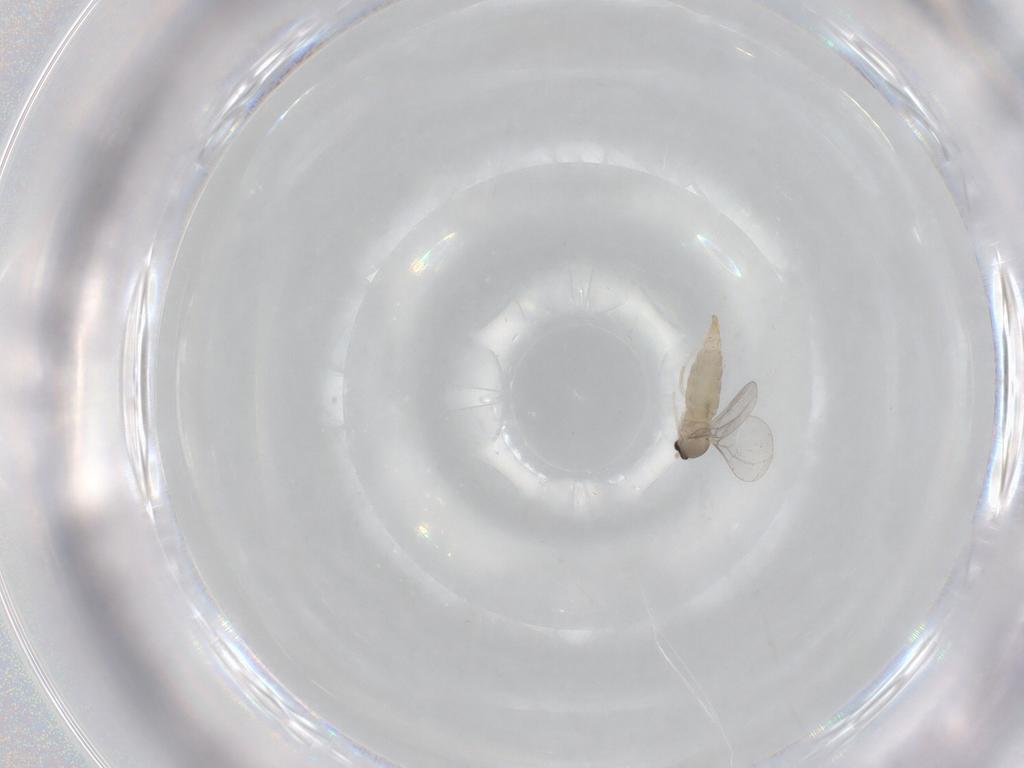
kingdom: Animalia
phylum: Arthropoda
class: Insecta
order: Diptera
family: Cecidomyiidae
